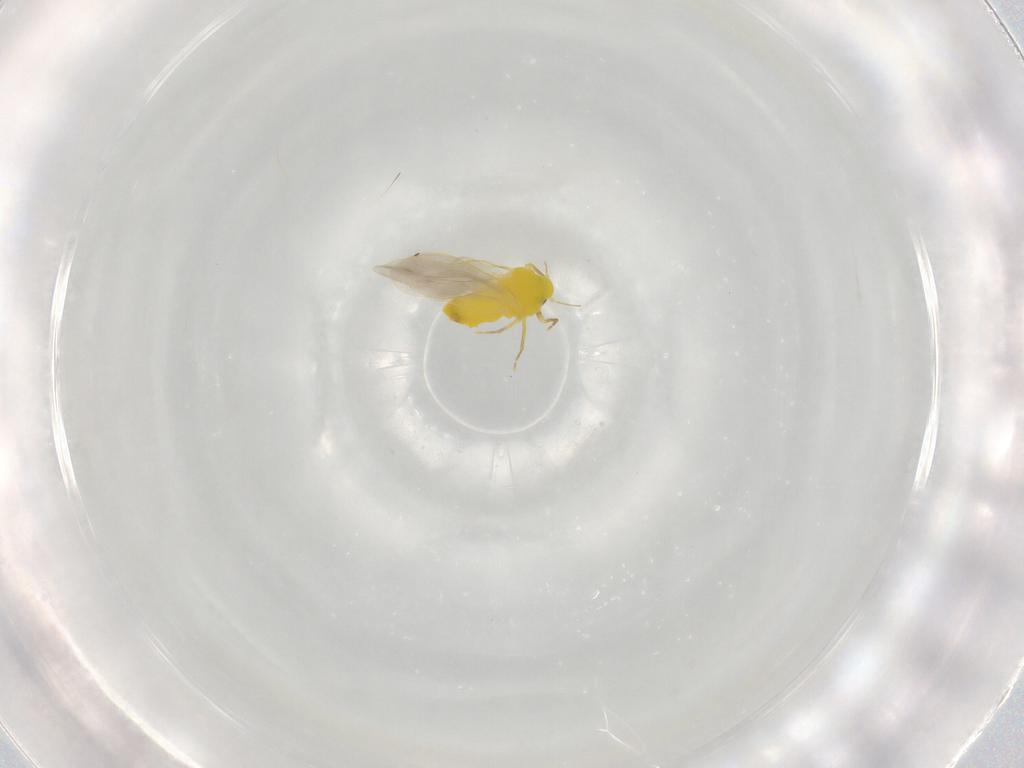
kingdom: Animalia
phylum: Arthropoda
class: Insecta
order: Hemiptera
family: Aleyrodidae
